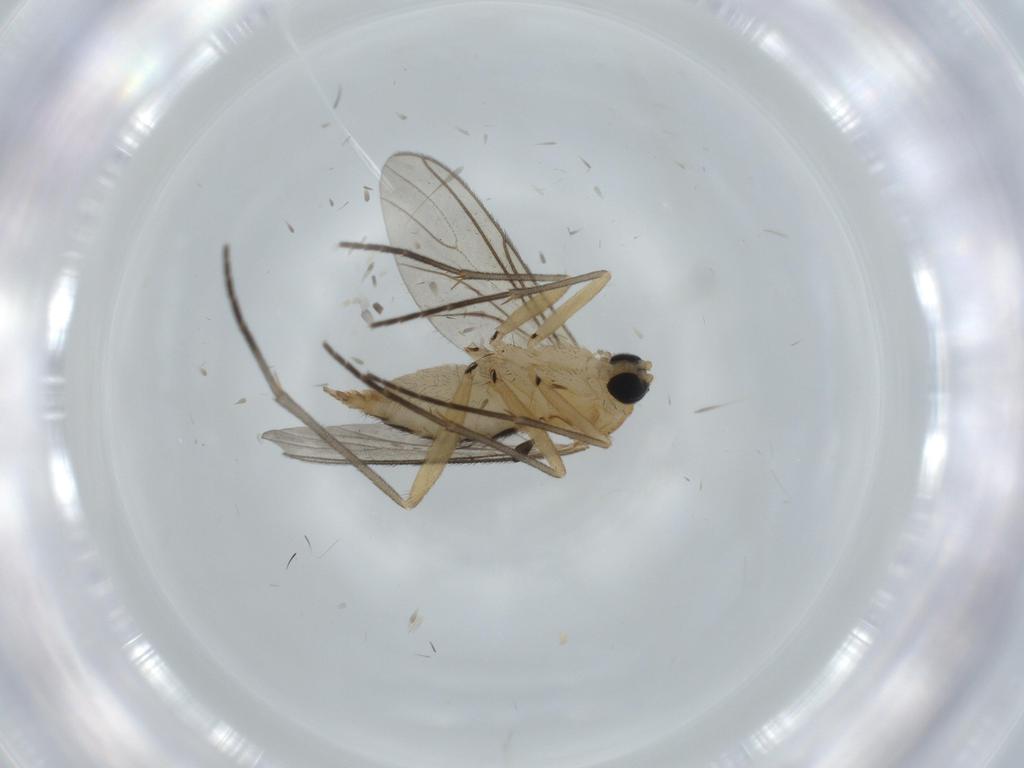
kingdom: Animalia
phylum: Arthropoda
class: Insecta
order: Diptera
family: Sciaridae
